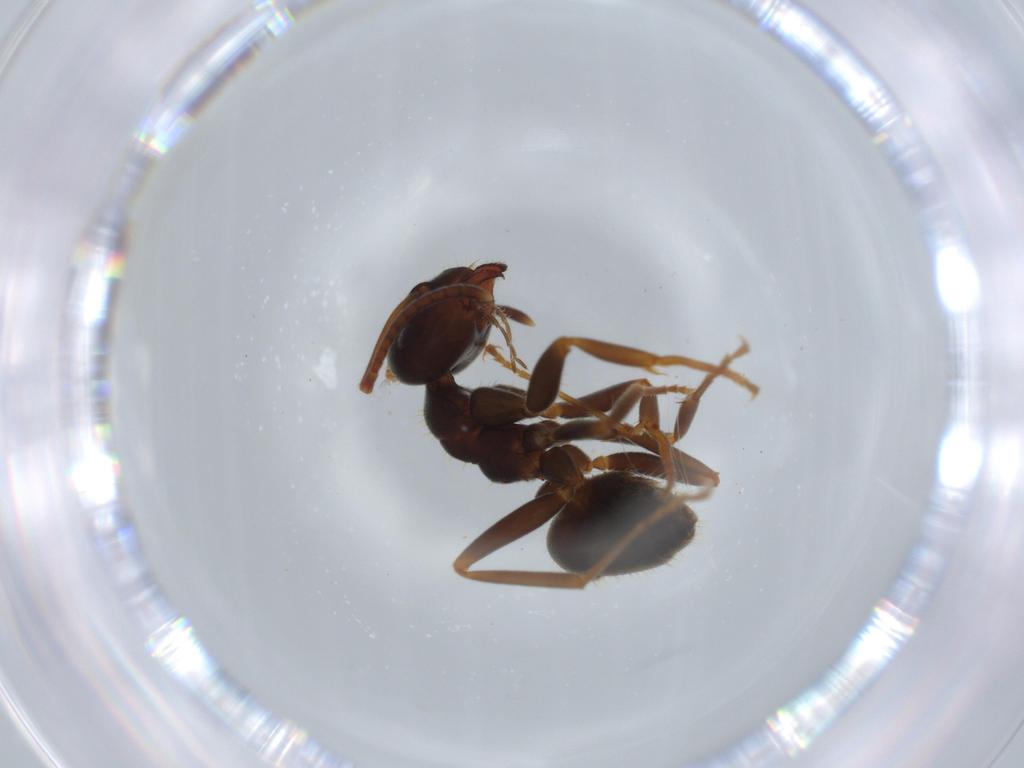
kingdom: Animalia
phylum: Arthropoda
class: Insecta
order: Hymenoptera
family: Formicidae
